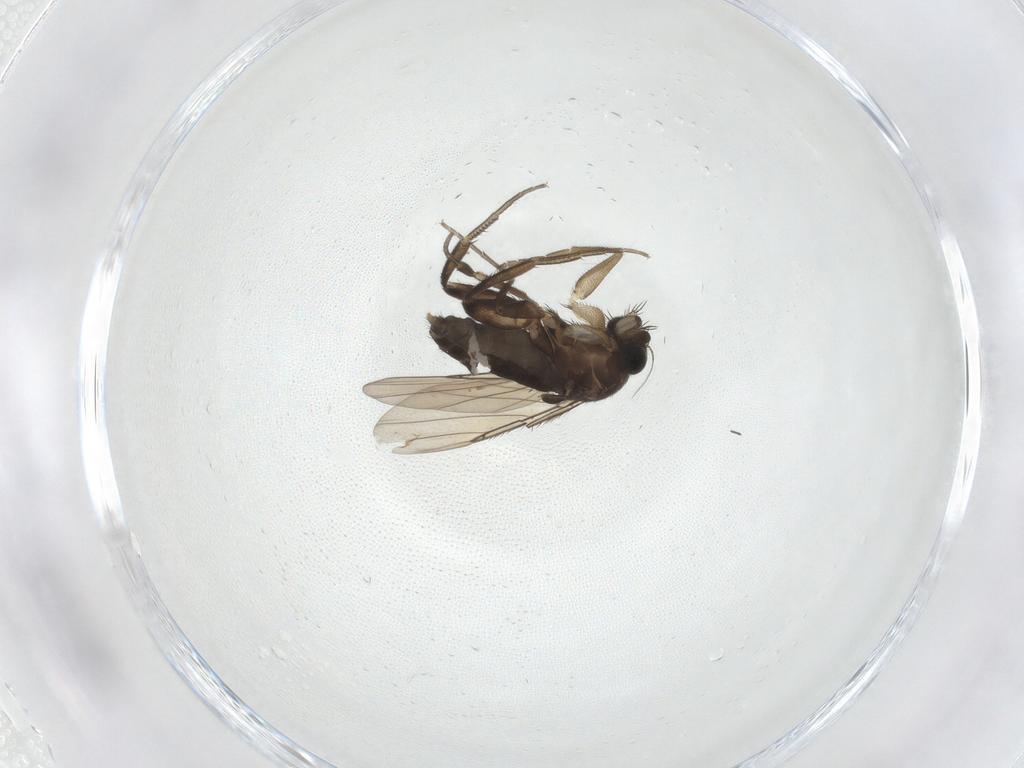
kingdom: Animalia
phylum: Arthropoda
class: Insecta
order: Diptera
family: Phoridae
